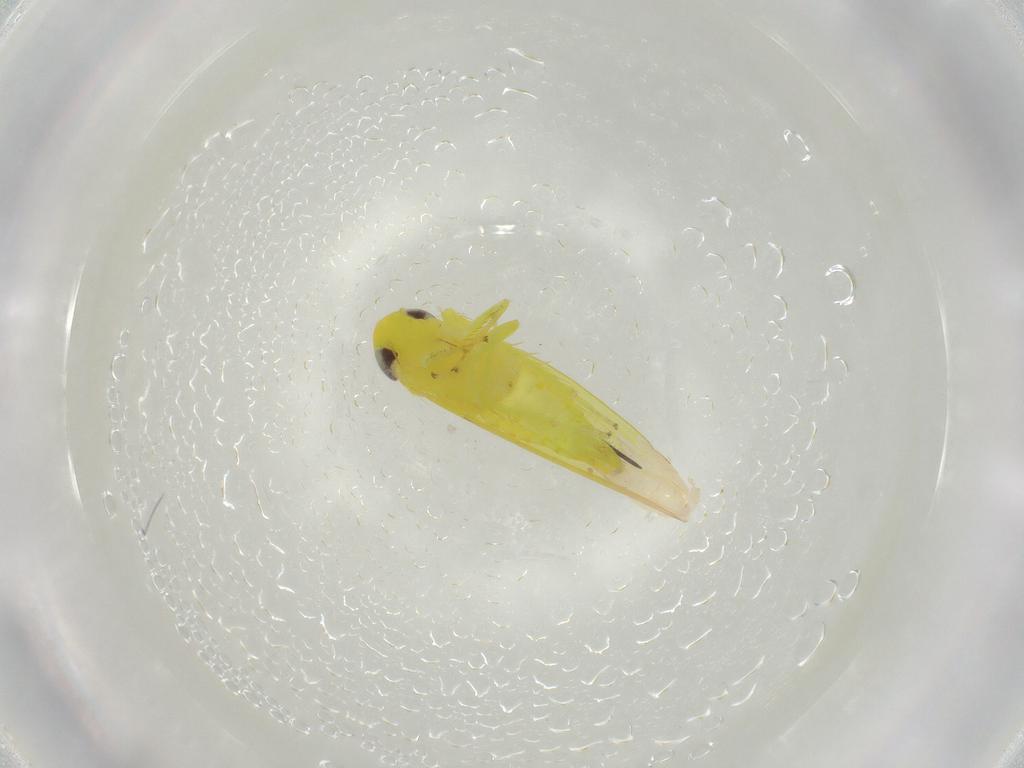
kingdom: Animalia
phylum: Arthropoda
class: Insecta
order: Hemiptera
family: Cicadellidae
